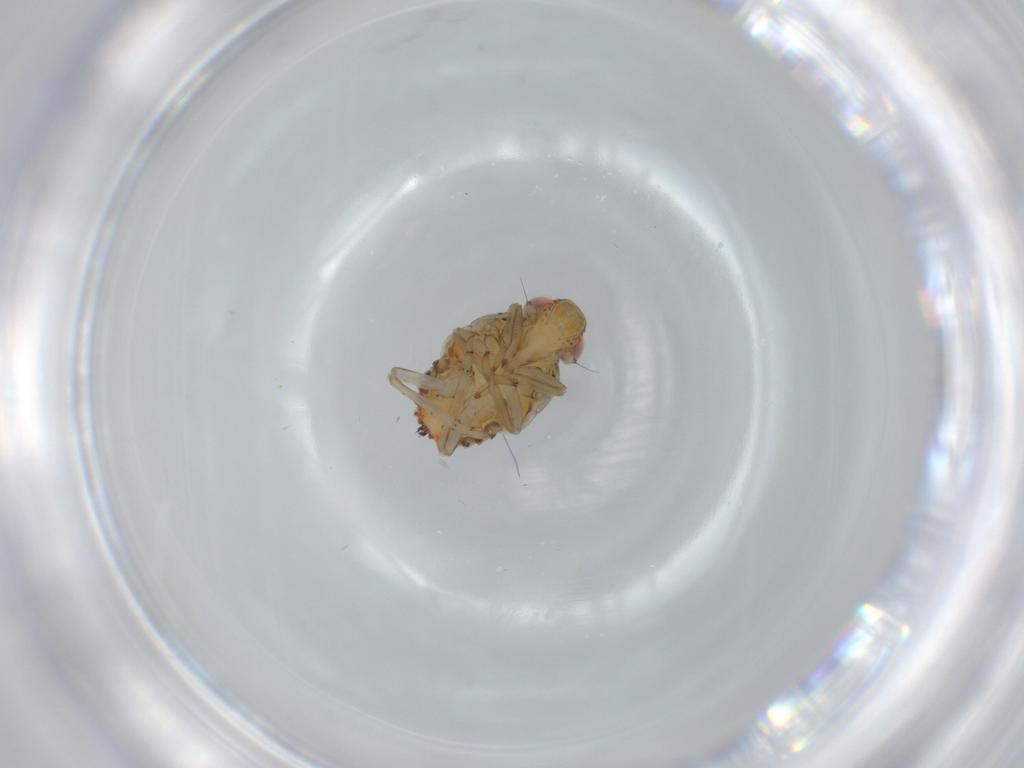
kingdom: Animalia
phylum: Arthropoda
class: Insecta
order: Hemiptera
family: Issidae
